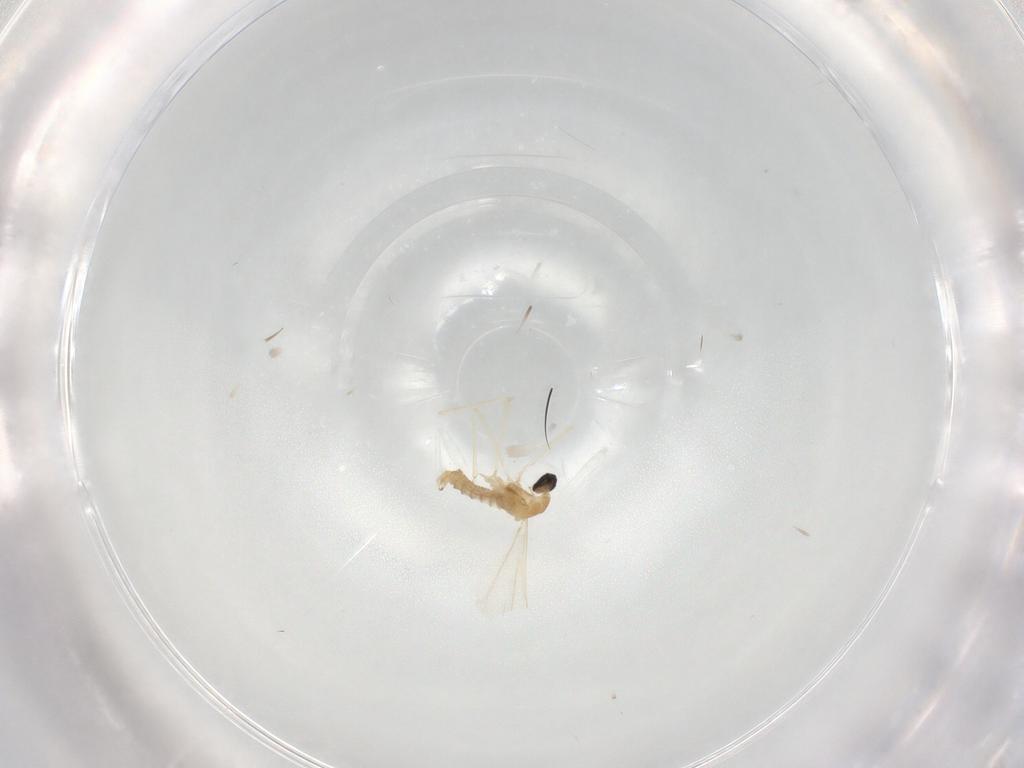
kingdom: Animalia
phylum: Arthropoda
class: Insecta
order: Diptera
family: Cecidomyiidae
